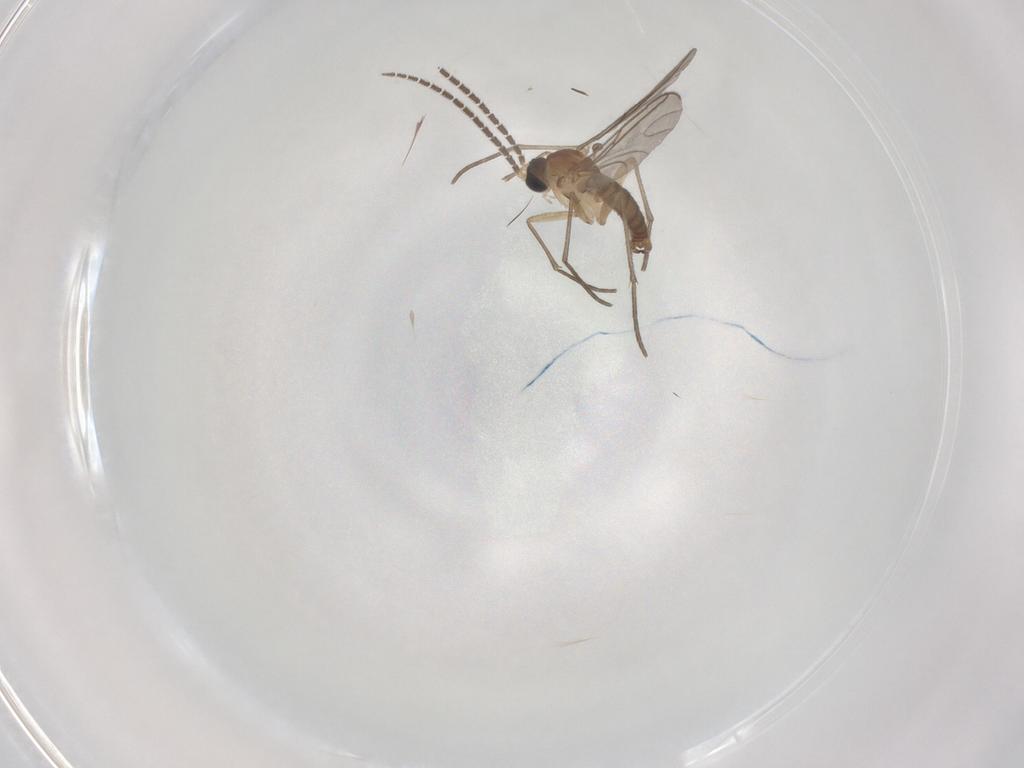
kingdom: Animalia
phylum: Arthropoda
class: Insecta
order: Diptera
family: Sciaridae
